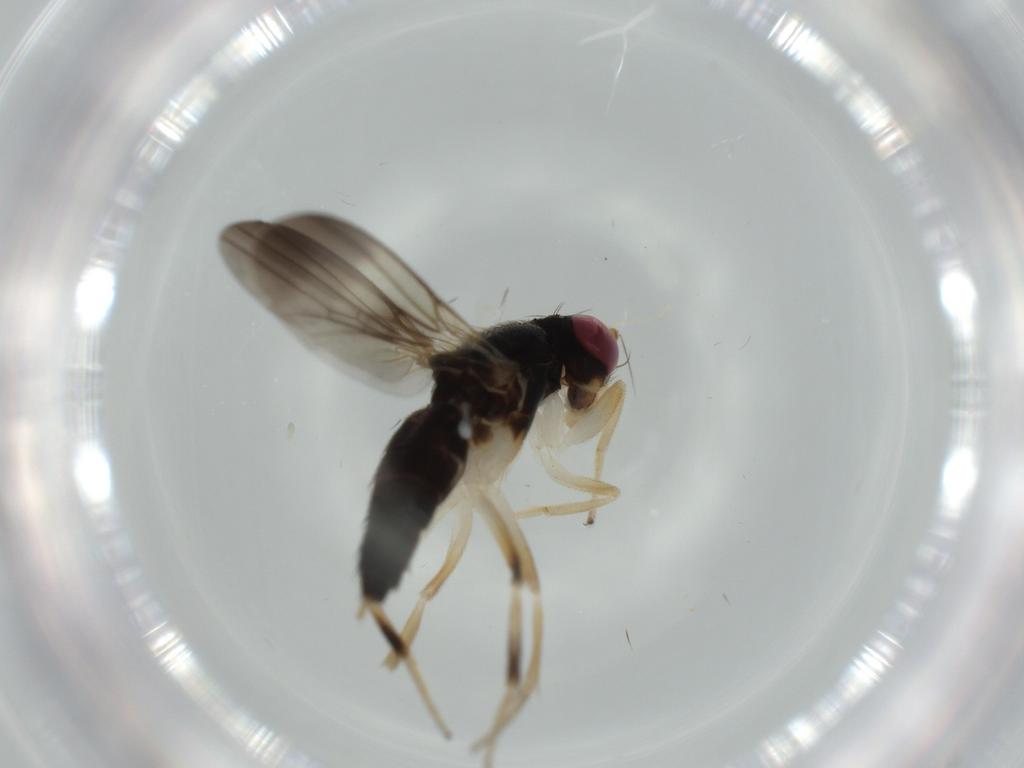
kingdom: Animalia
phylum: Arthropoda
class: Insecta
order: Diptera
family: Clusiidae
